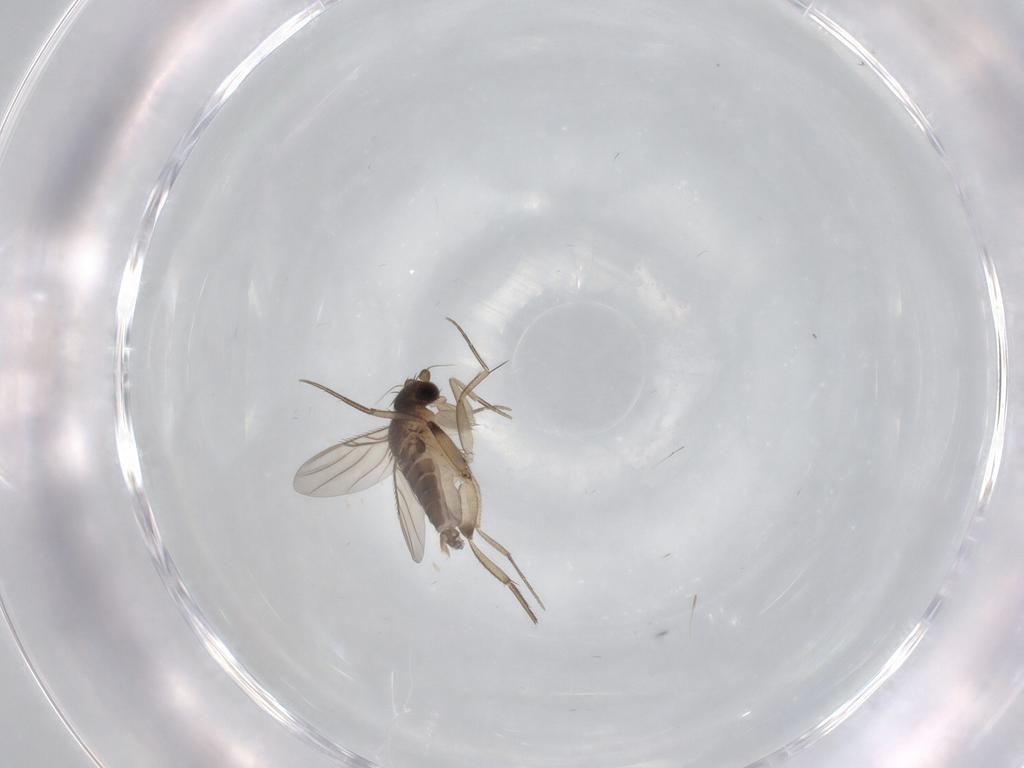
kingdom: Animalia
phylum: Arthropoda
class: Insecta
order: Diptera
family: Phoridae
